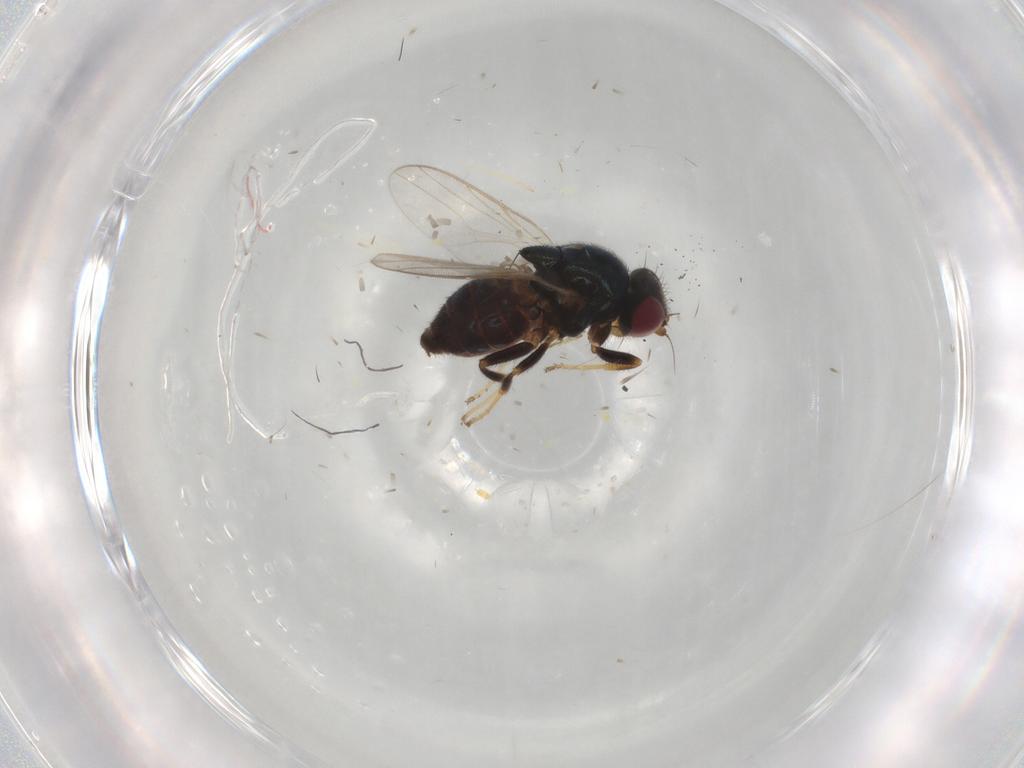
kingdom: Animalia
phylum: Arthropoda
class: Insecta
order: Diptera
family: Chloropidae
